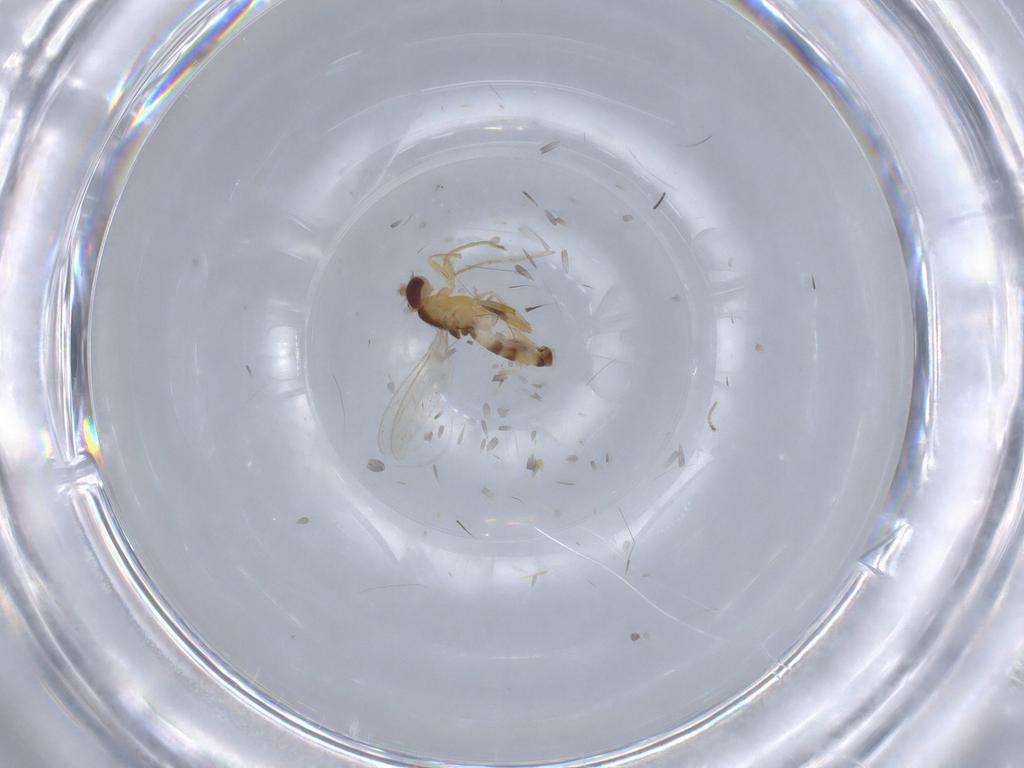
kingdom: Animalia
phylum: Arthropoda
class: Insecta
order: Diptera
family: Periscelididae
